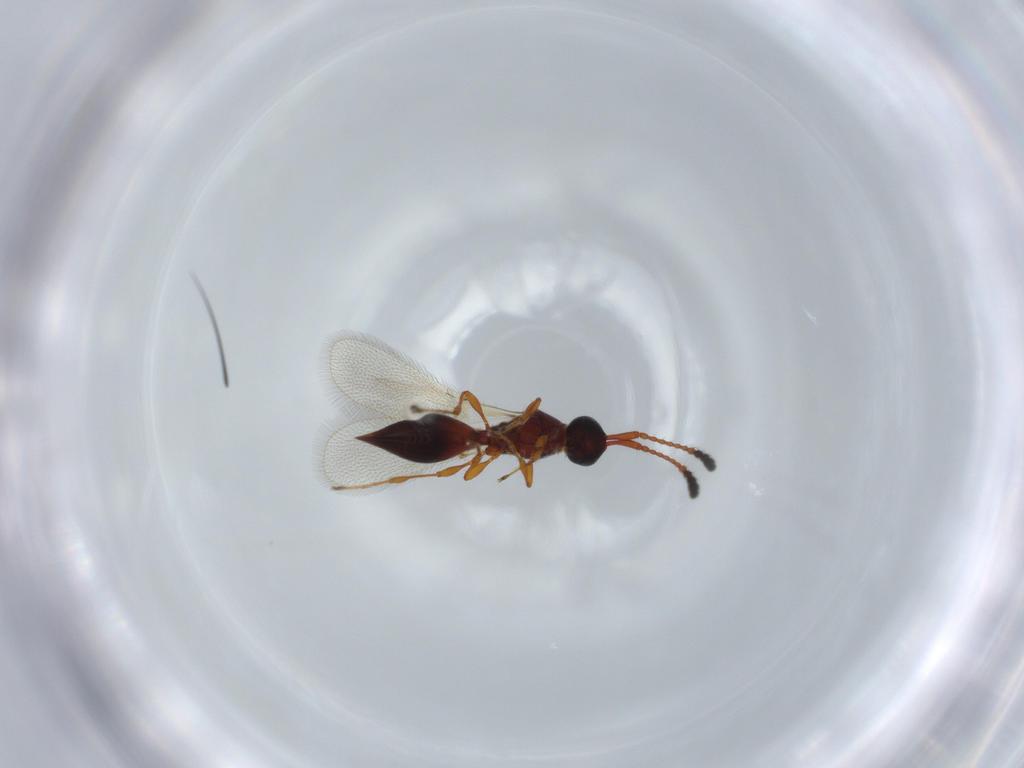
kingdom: Animalia
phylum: Arthropoda
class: Insecta
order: Hymenoptera
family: Diapriidae
